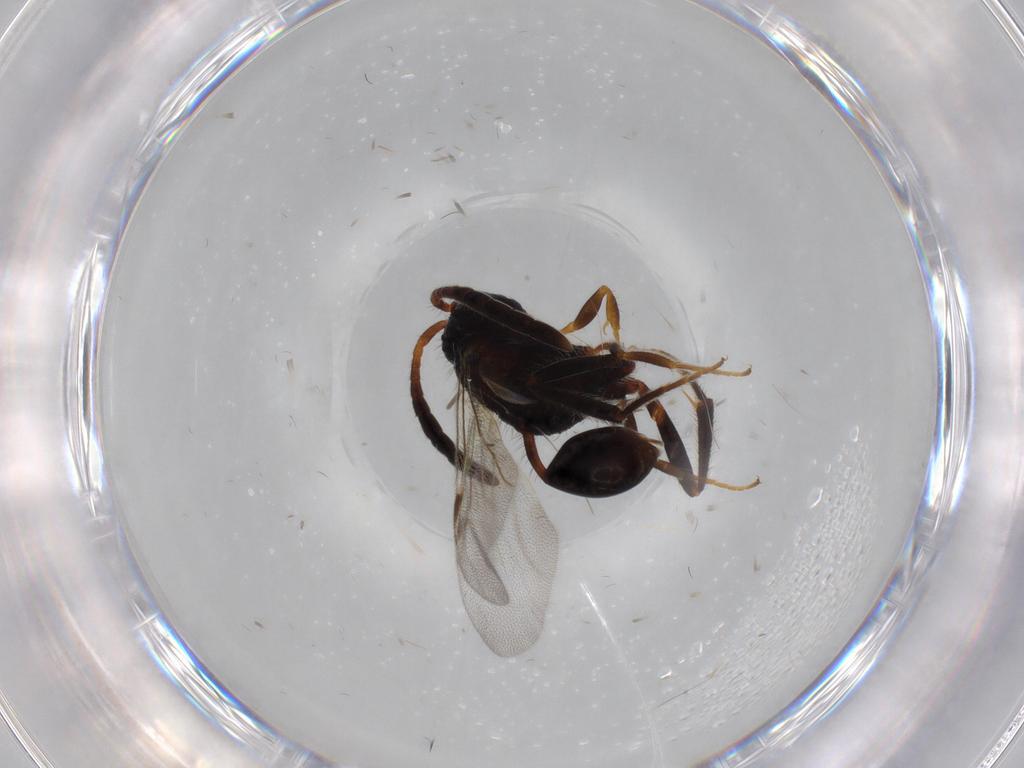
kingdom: Animalia
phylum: Arthropoda
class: Insecta
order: Hymenoptera
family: Evaniidae
